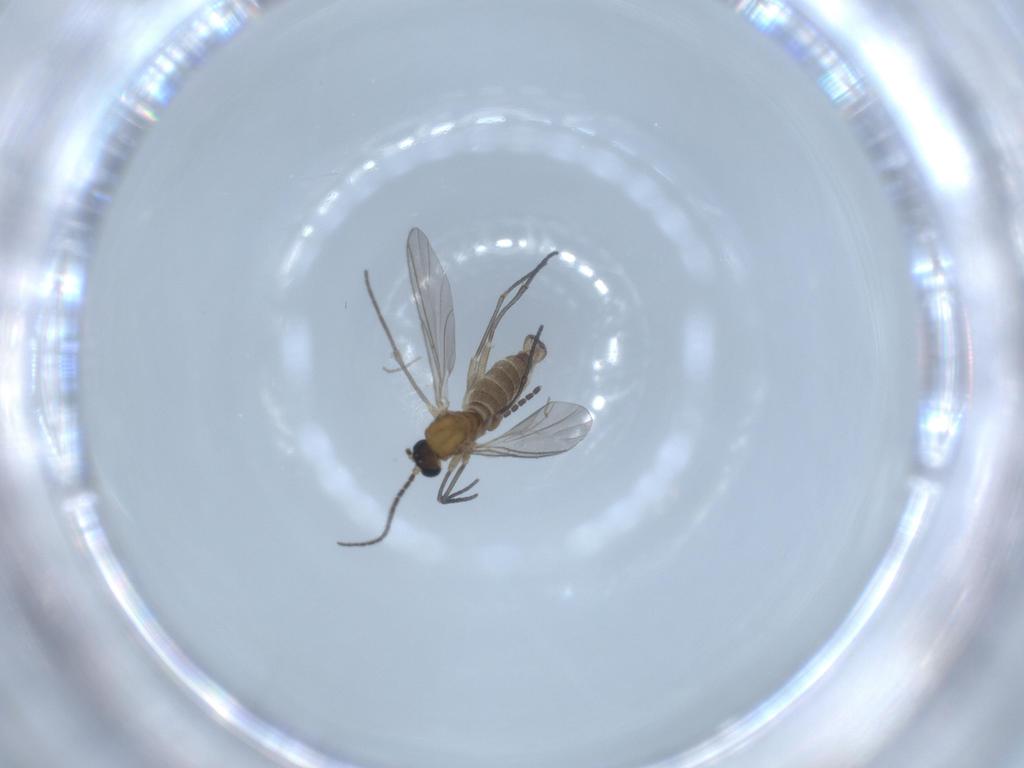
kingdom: Animalia
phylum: Arthropoda
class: Insecta
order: Diptera
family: Sciaridae
